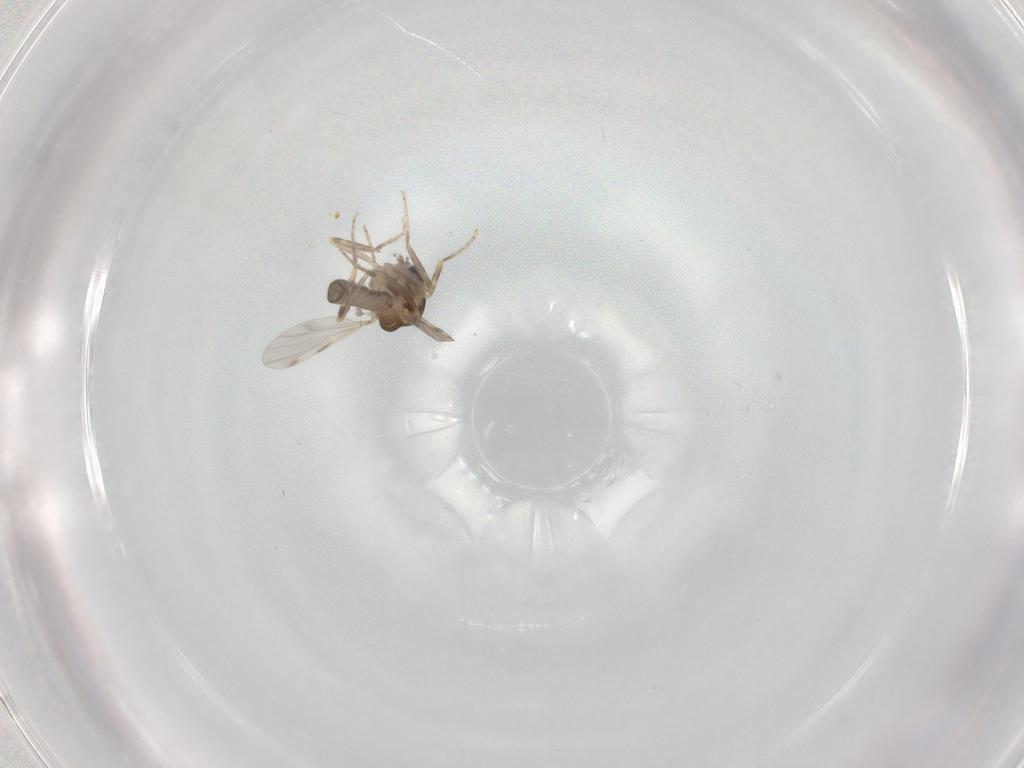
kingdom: Animalia
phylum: Arthropoda
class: Insecta
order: Diptera
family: Ceratopogonidae
